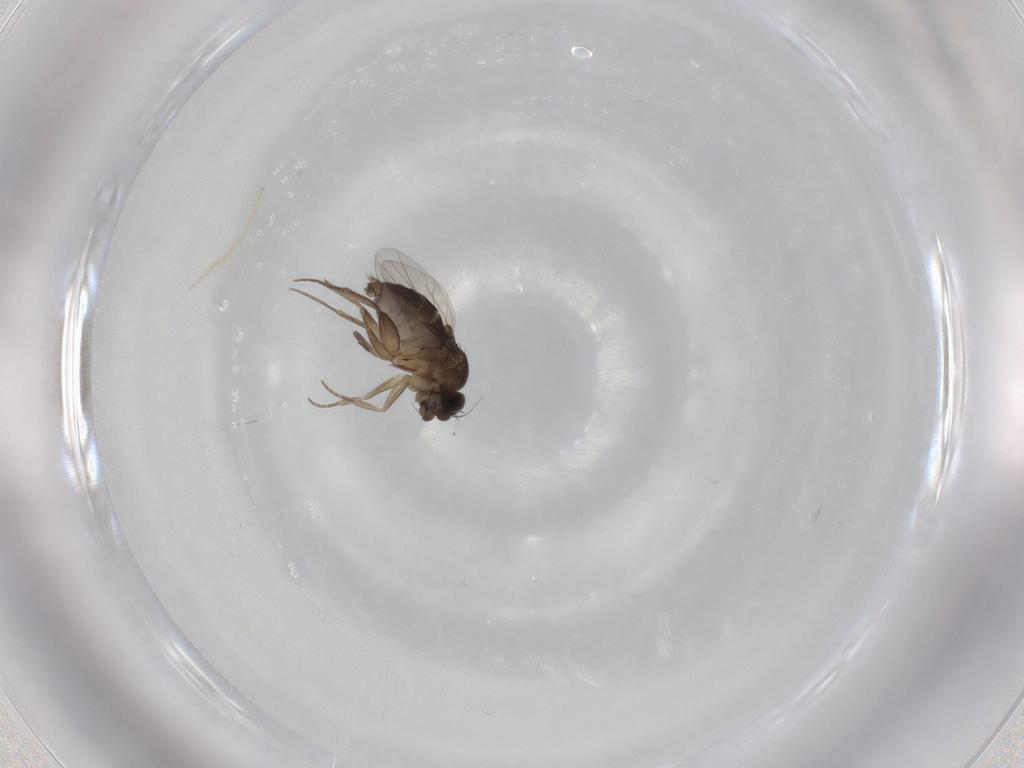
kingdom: Animalia
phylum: Arthropoda
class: Insecta
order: Diptera
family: Phoridae
